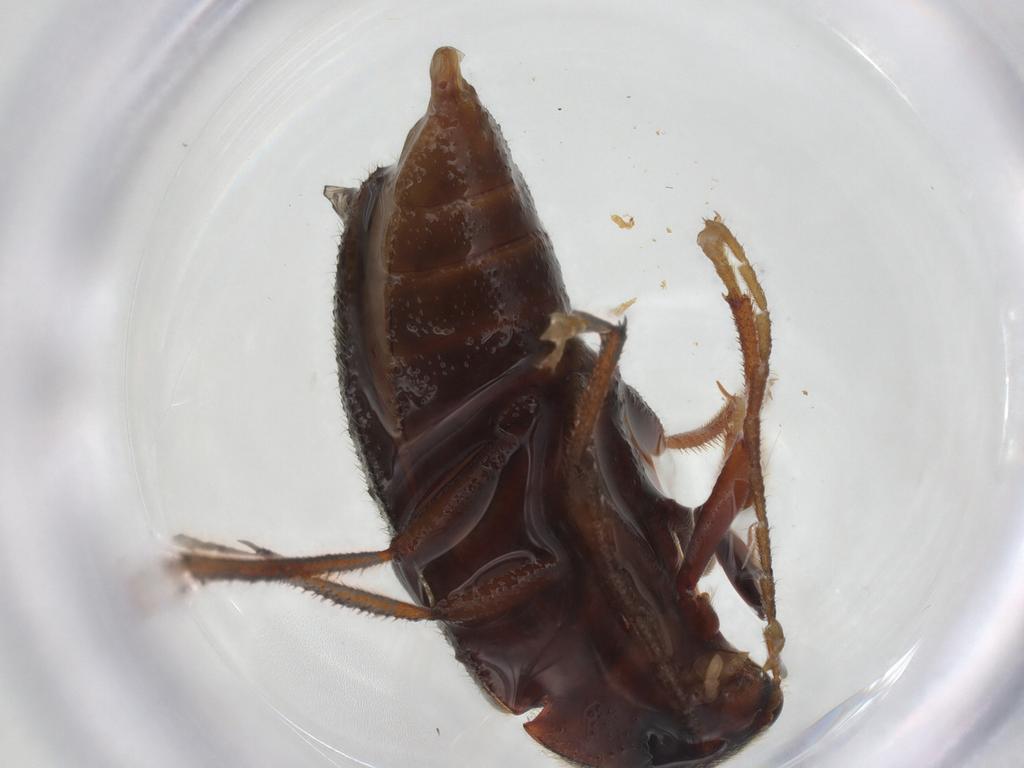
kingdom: Animalia
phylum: Arthropoda
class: Insecta
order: Coleoptera
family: Ptilodactylidae
